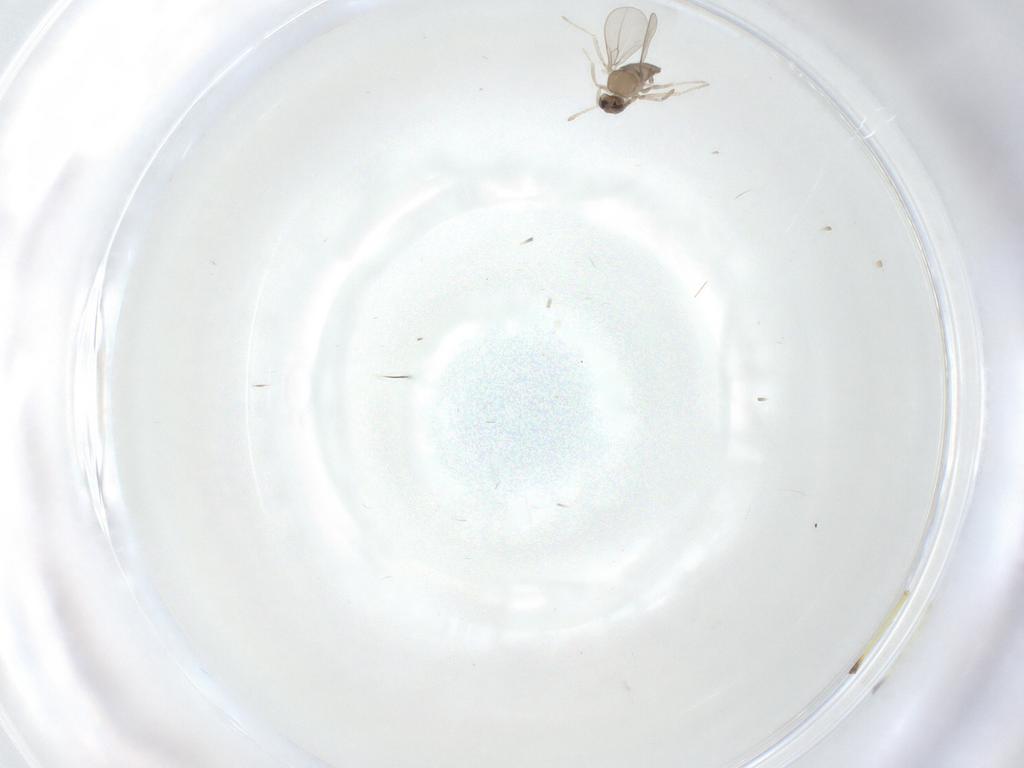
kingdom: Animalia
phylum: Arthropoda
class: Insecta
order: Diptera
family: Cecidomyiidae
